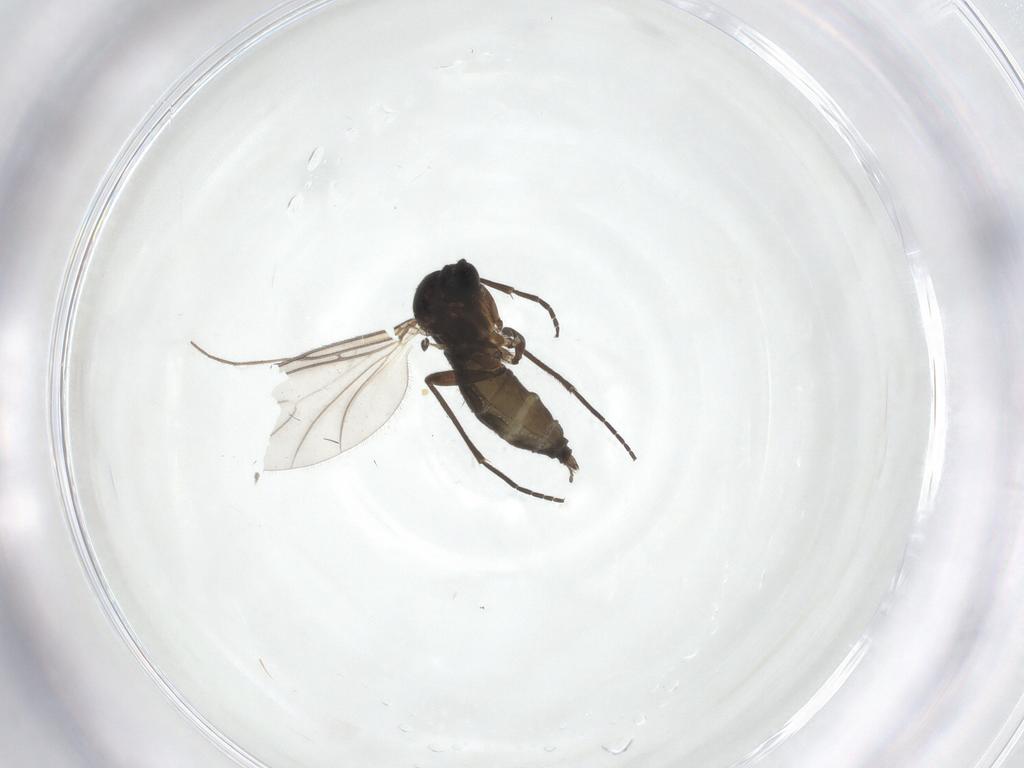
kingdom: Animalia
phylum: Arthropoda
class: Insecta
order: Diptera
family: Sciaridae
